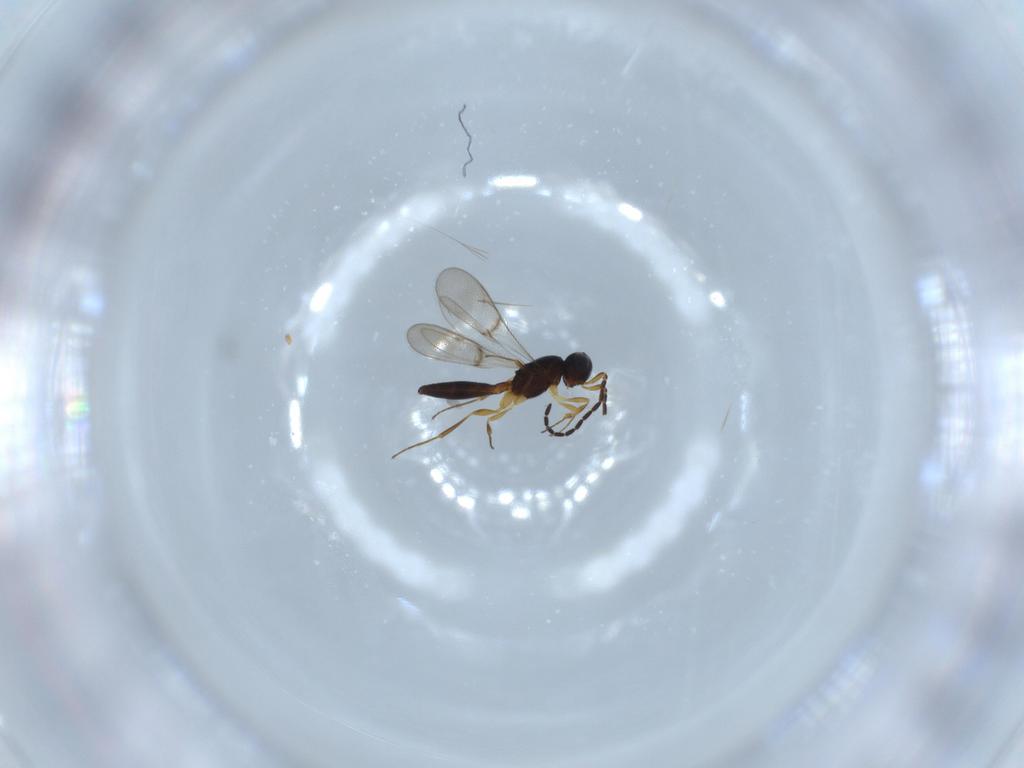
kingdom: Animalia
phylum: Arthropoda
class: Insecta
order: Hymenoptera
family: Scelionidae
